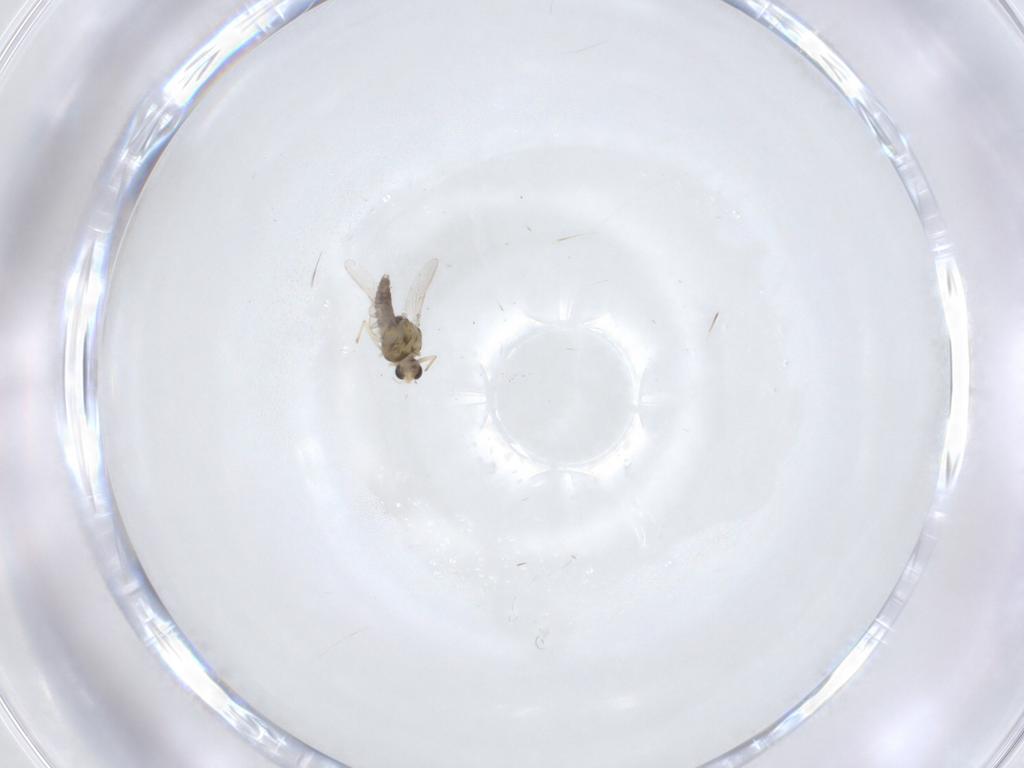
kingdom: Animalia
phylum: Arthropoda
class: Insecta
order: Diptera
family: Chironomidae
